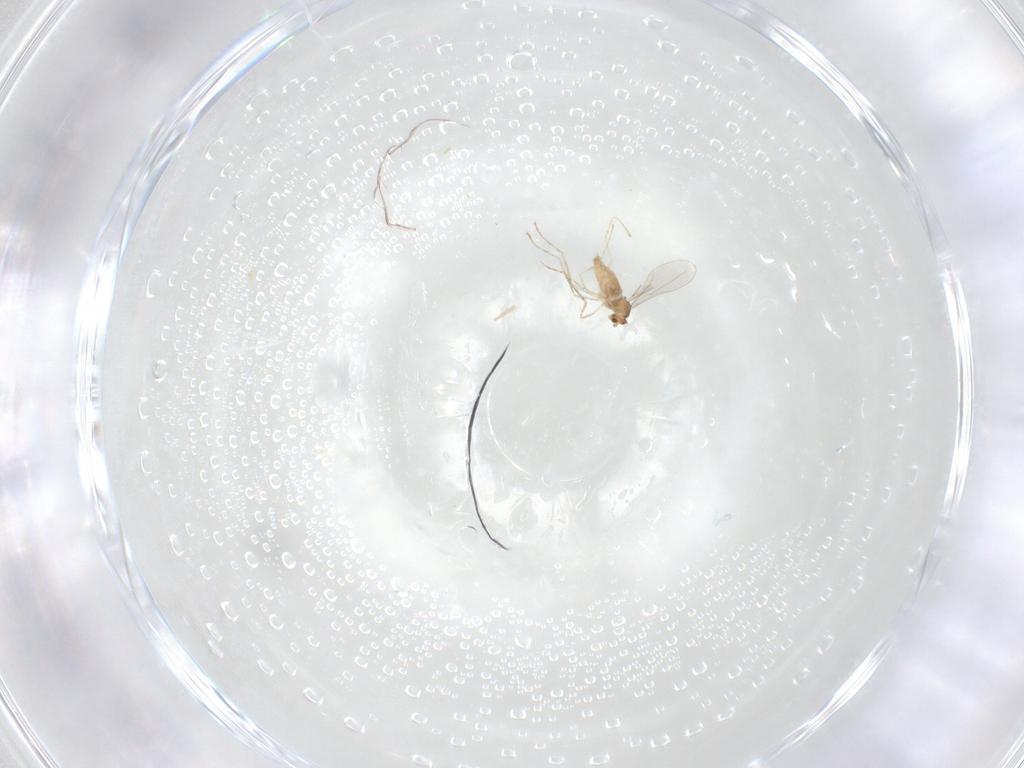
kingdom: Animalia
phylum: Arthropoda
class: Insecta
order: Diptera
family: Cecidomyiidae
